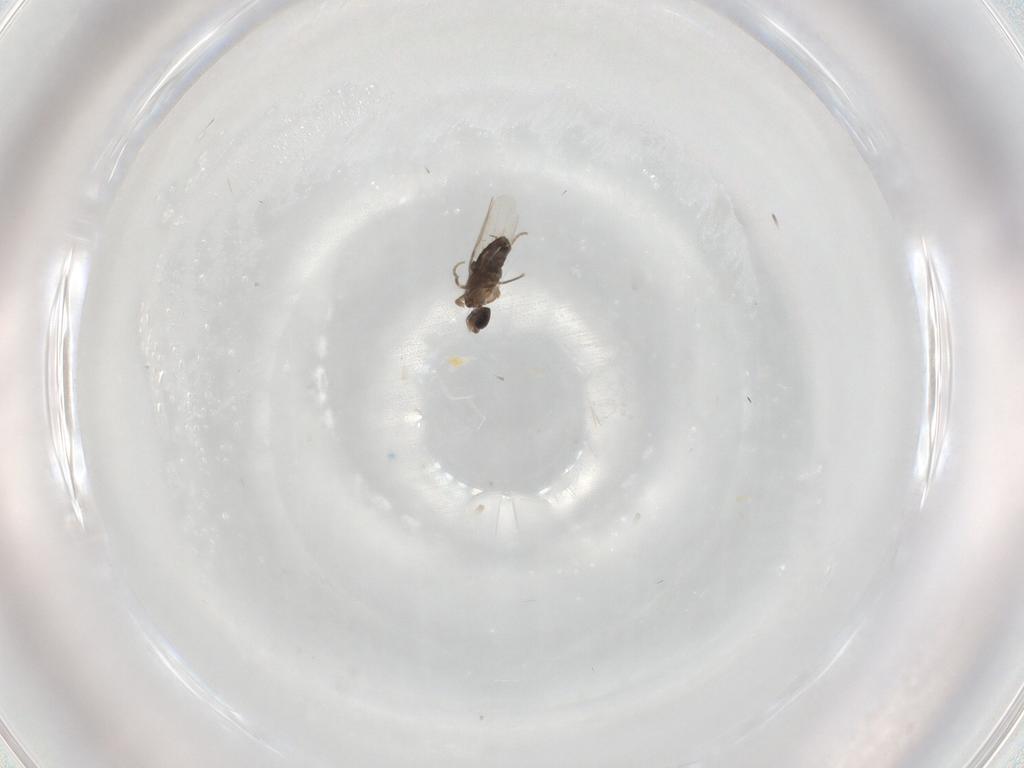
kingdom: Animalia
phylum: Arthropoda
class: Insecta
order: Diptera
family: Phoridae
